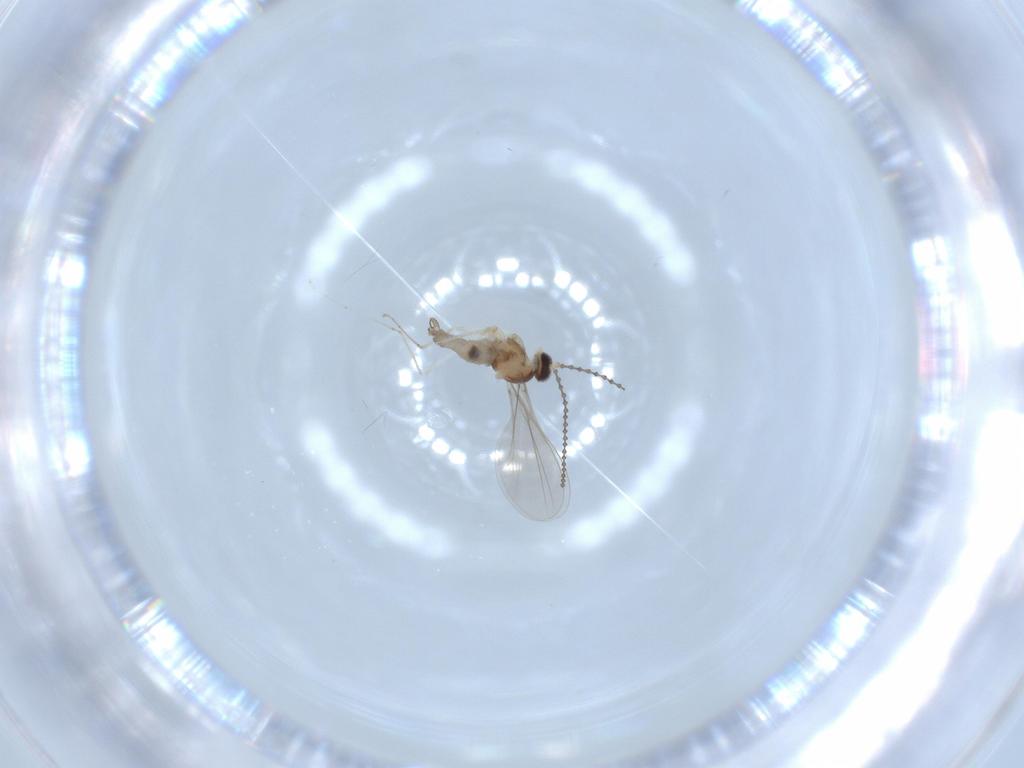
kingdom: Animalia
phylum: Arthropoda
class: Insecta
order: Diptera
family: Cecidomyiidae
